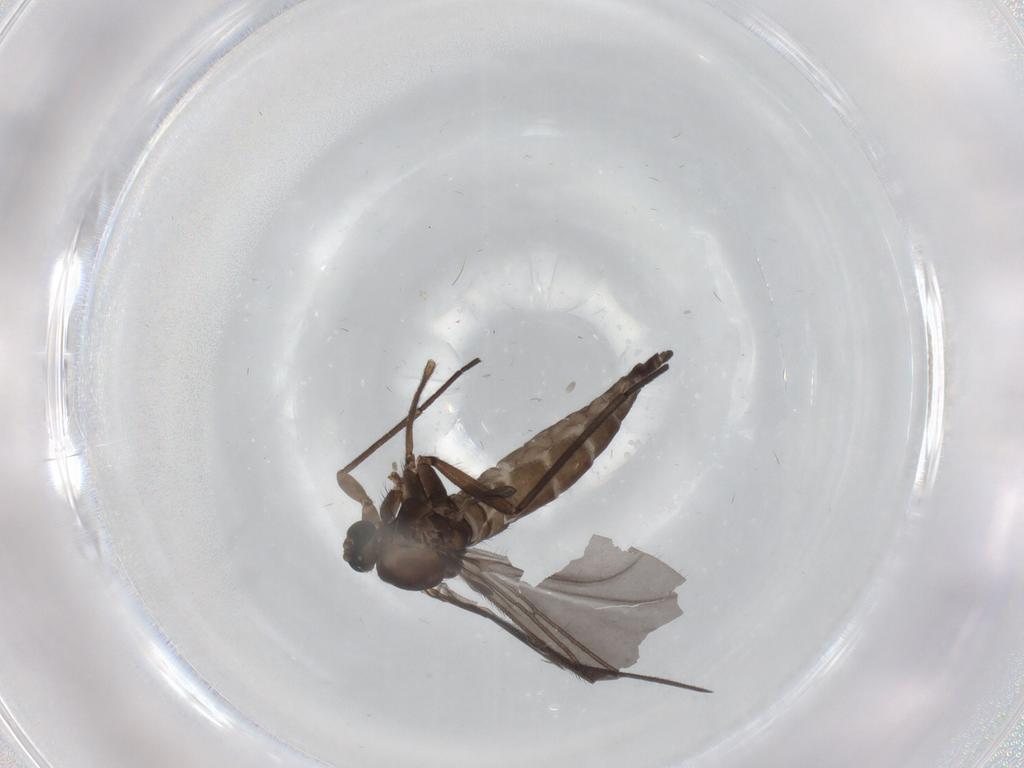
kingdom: Animalia
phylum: Arthropoda
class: Insecta
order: Diptera
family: Sciaridae
